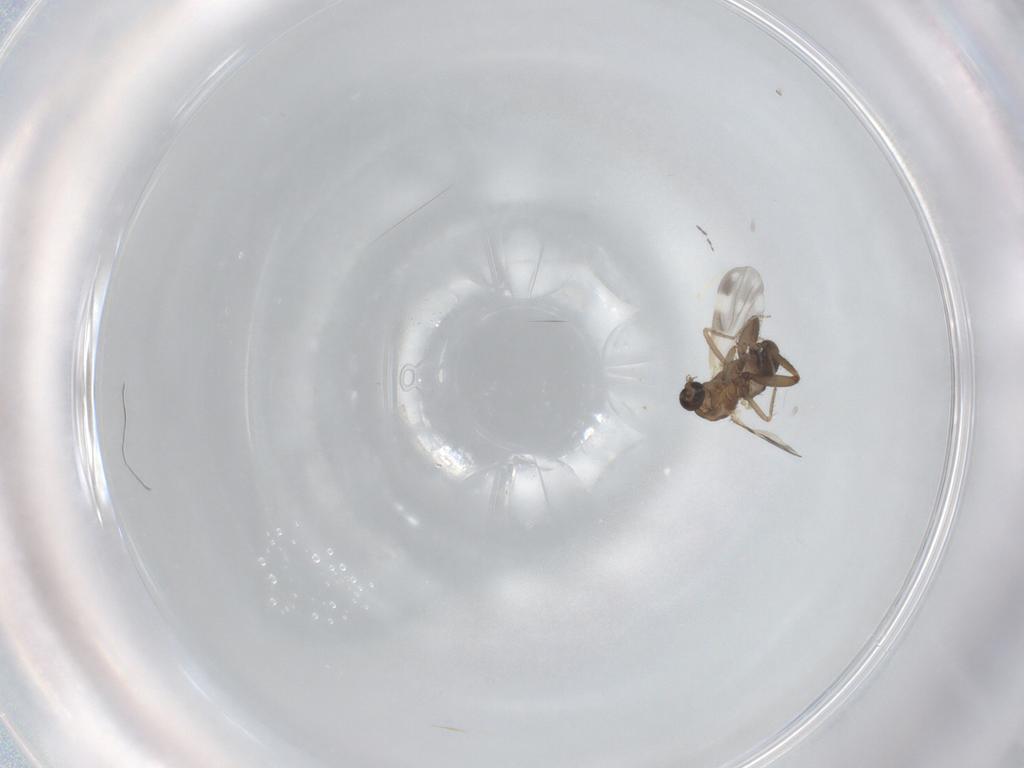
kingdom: Animalia
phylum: Arthropoda
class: Insecta
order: Diptera
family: Ceratopogonidae
